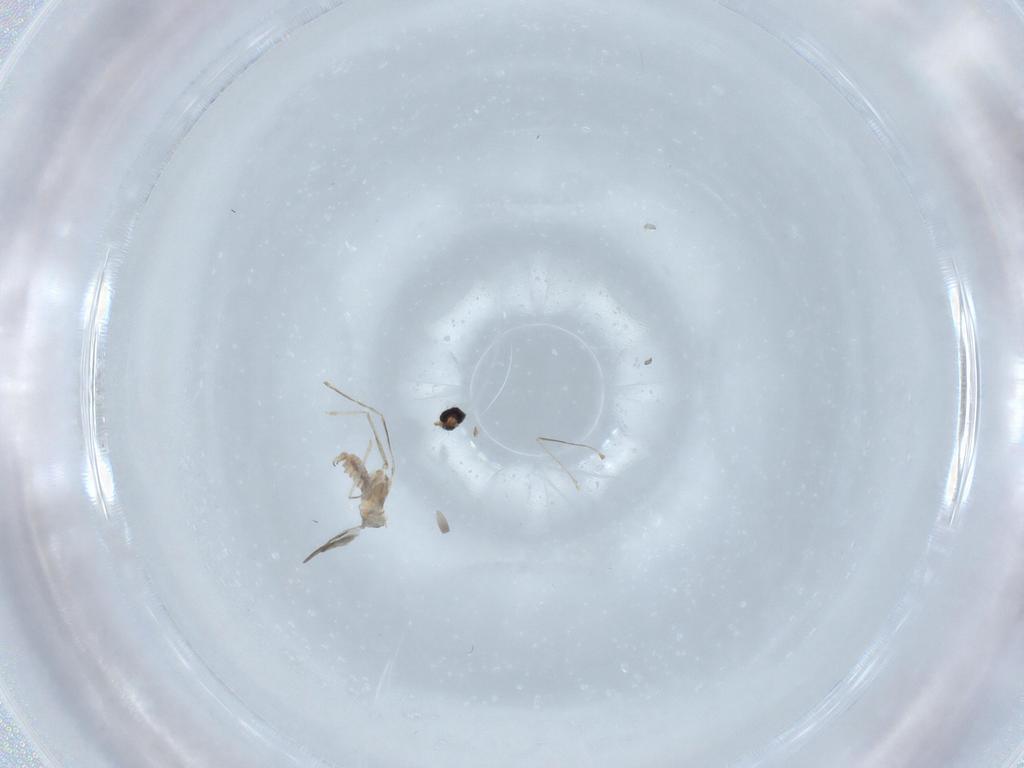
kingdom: Animalia
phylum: Arthropoda
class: Insecta
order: Diptera
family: Cecidomyiidae
